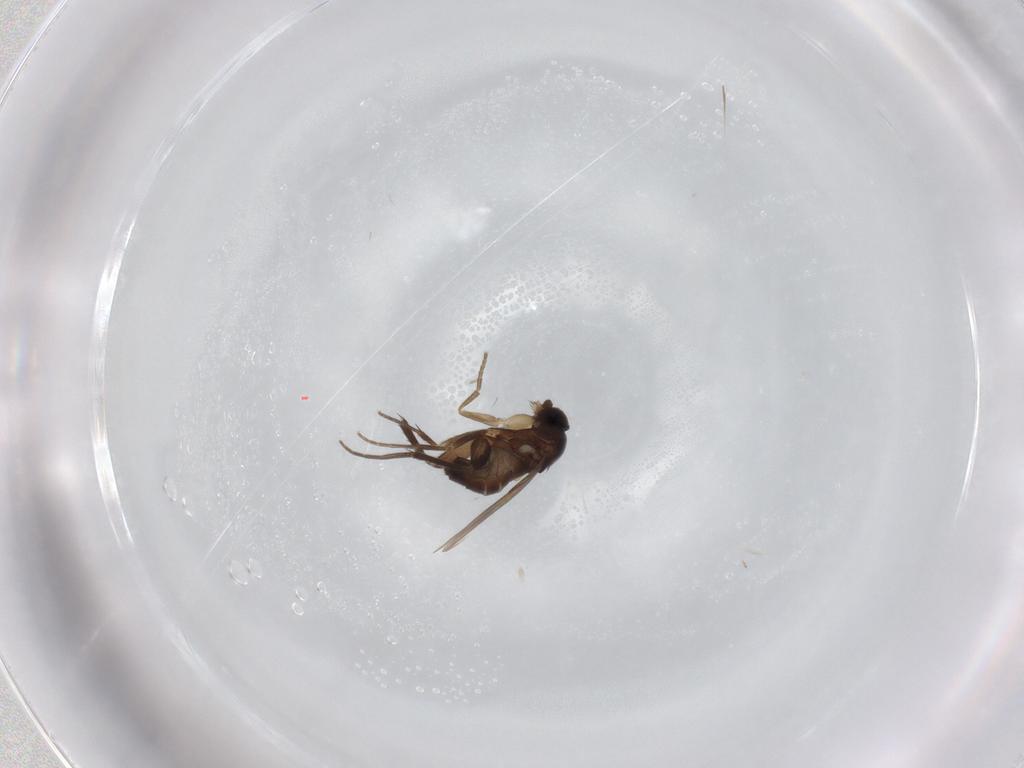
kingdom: Animalia
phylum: Arthropoda
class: Insecta
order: Diptera
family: Phoridae
